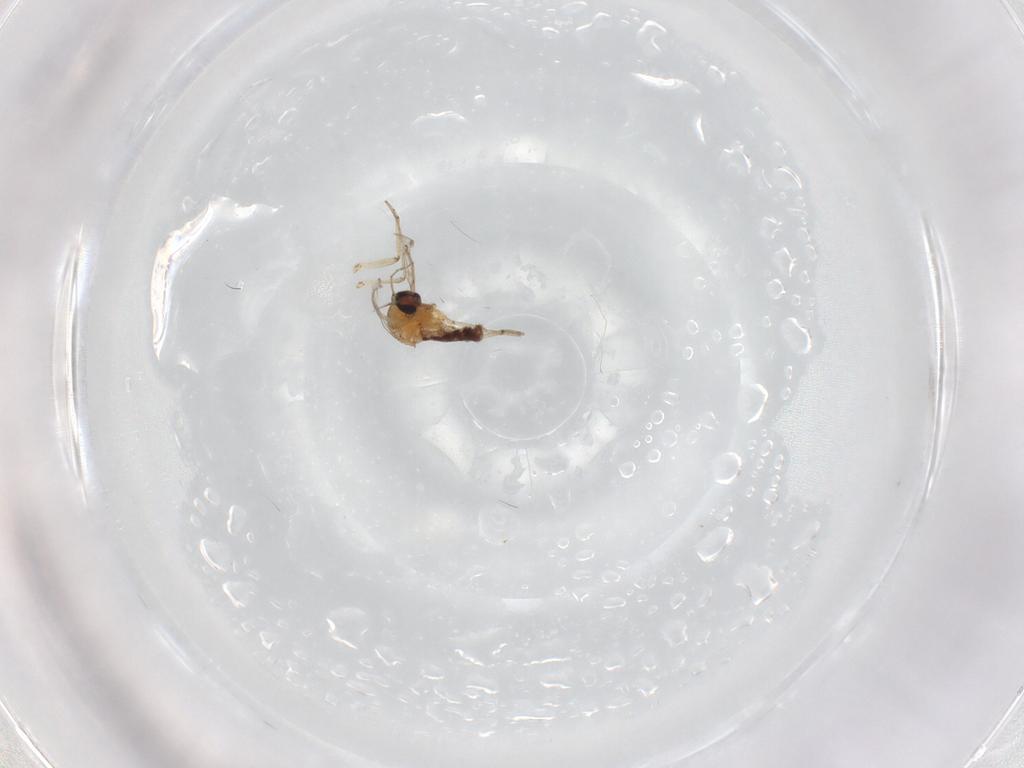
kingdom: Animalia
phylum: Arthropoda
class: Insecta
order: Diptera
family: Ceratopogonidae
